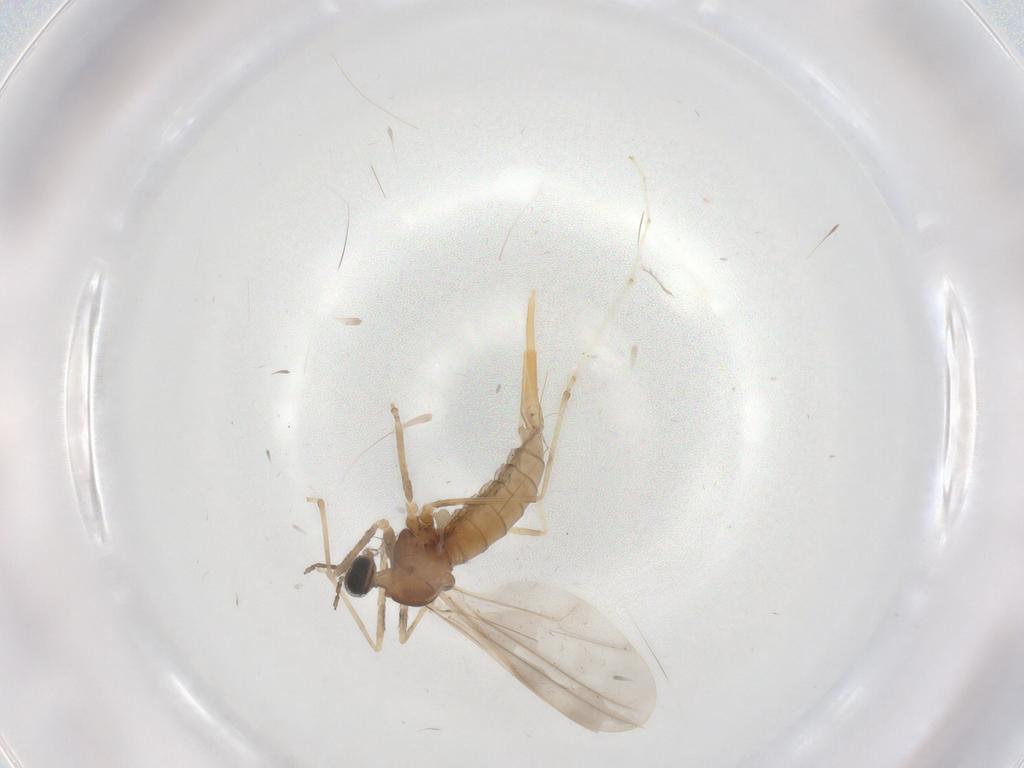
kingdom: Animalia
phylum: Arthropoda
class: Insecta
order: Diptera
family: Cecidomyiidae
